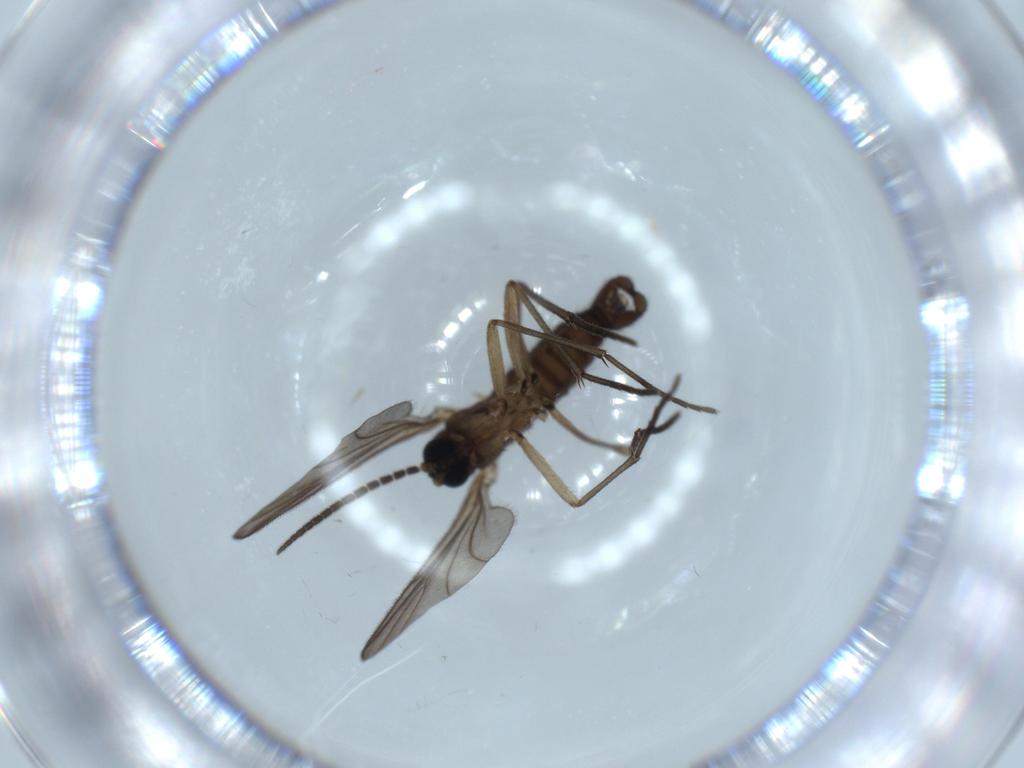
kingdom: Animalia
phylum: Arthropoda
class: Insecta
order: Diptera
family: Sciaridae
